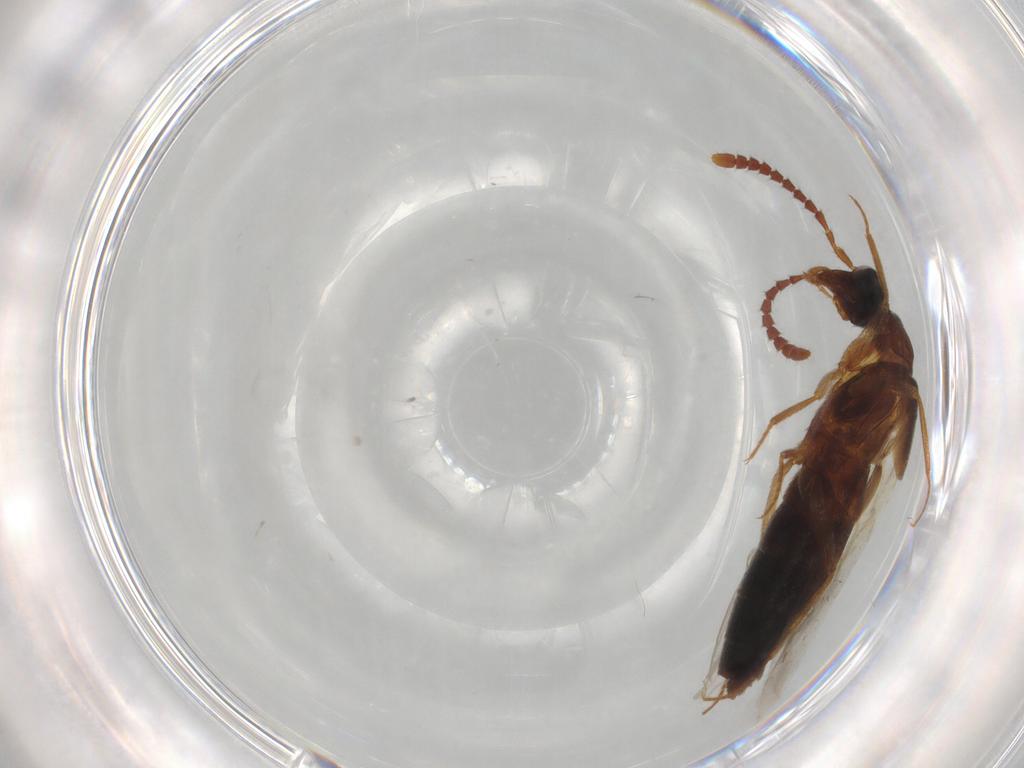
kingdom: Animalia
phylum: Arthropoda
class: Insecta
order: Coleoptera
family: Staphylinidae
